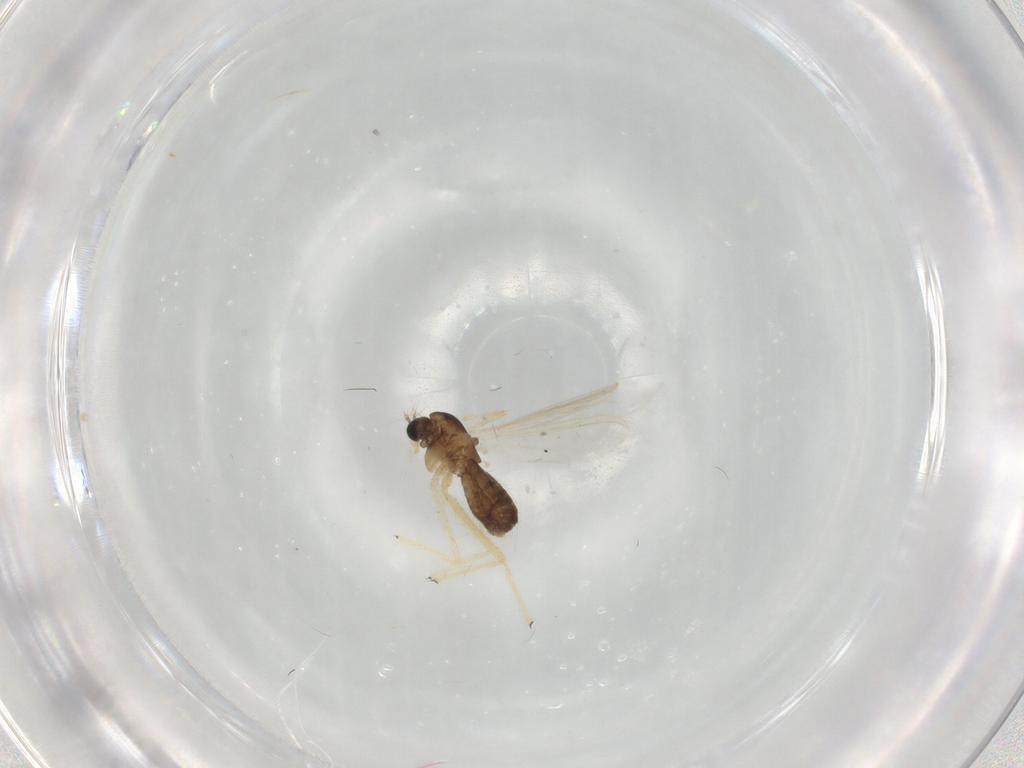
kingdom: Animalia
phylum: Arthropoda
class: Insecta
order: Diptera
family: Chironomidae
